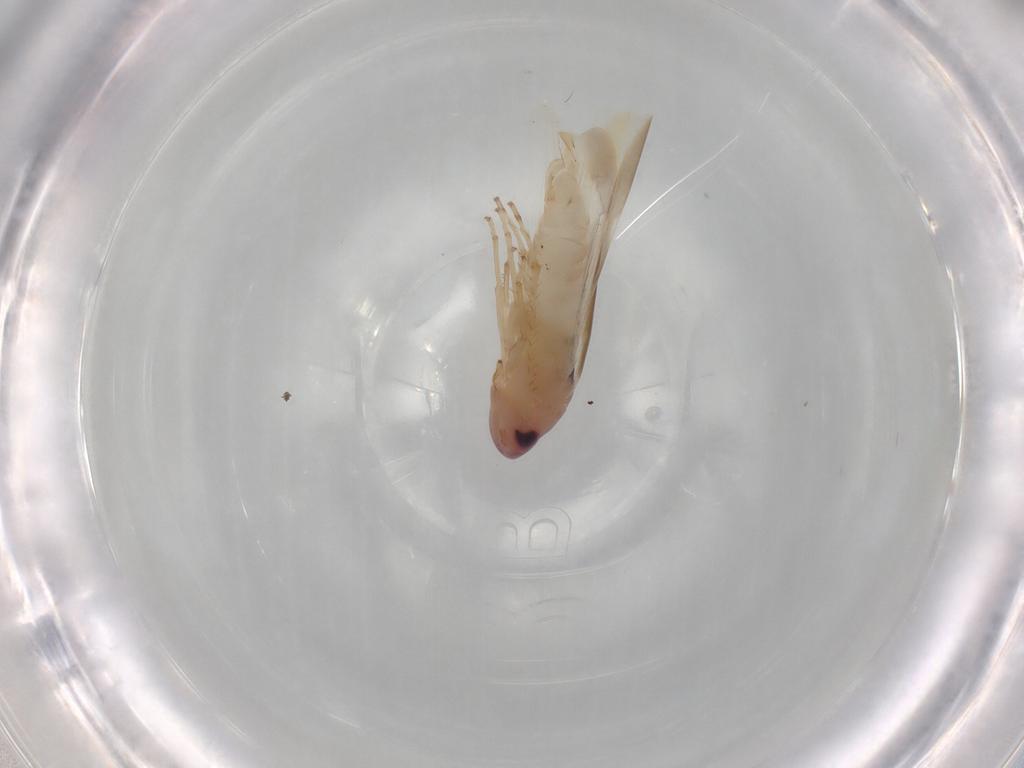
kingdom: Animalia
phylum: Arthropoda
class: Insecta
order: Hemiptera
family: Cicadellidae
